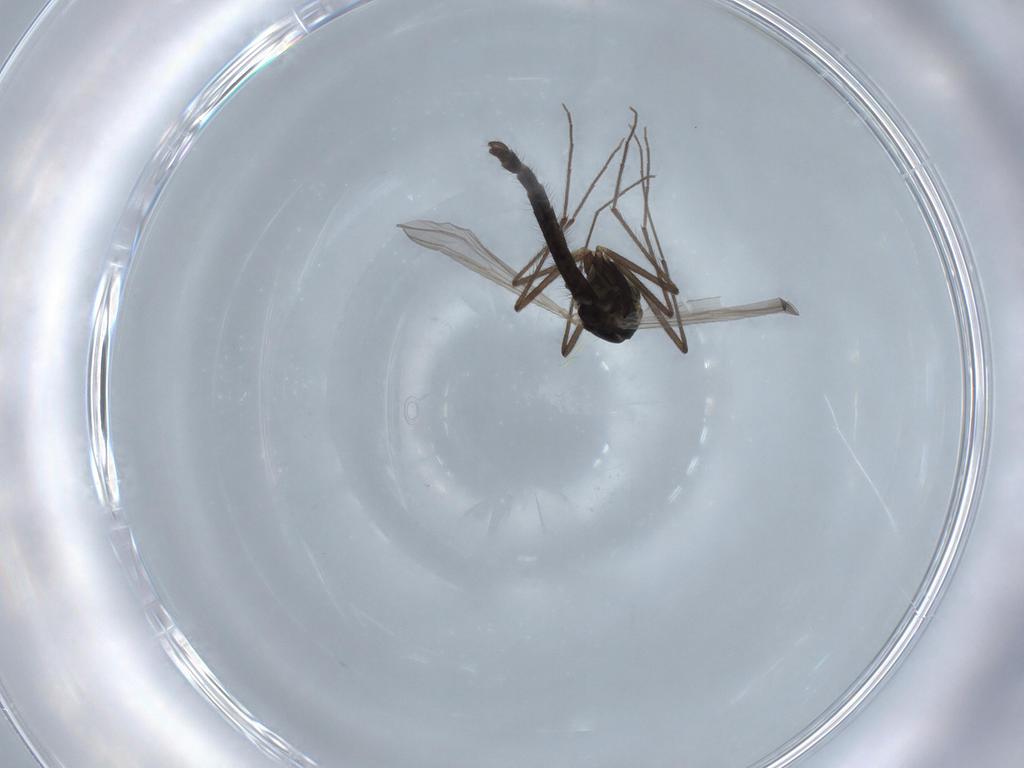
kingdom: Animalia
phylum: Arthropoda
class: Insecta
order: Diptera
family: Chironomidae
